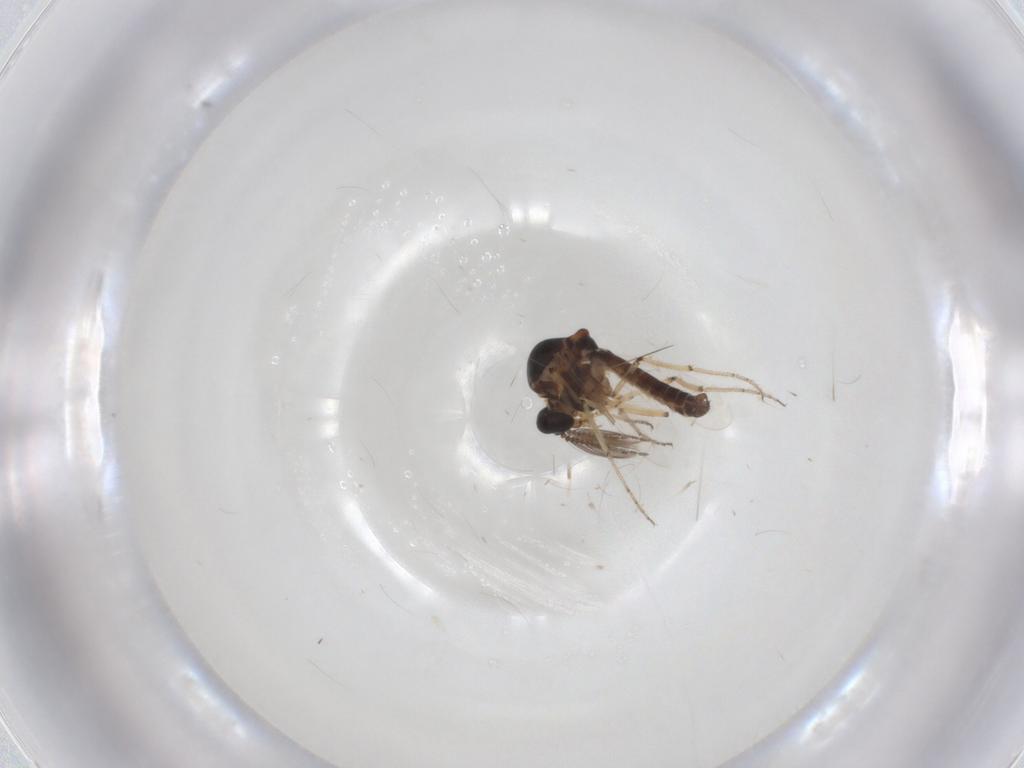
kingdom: Animalia
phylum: Arthropoda
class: Insecta
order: Diptera
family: Ceratopogonidae
